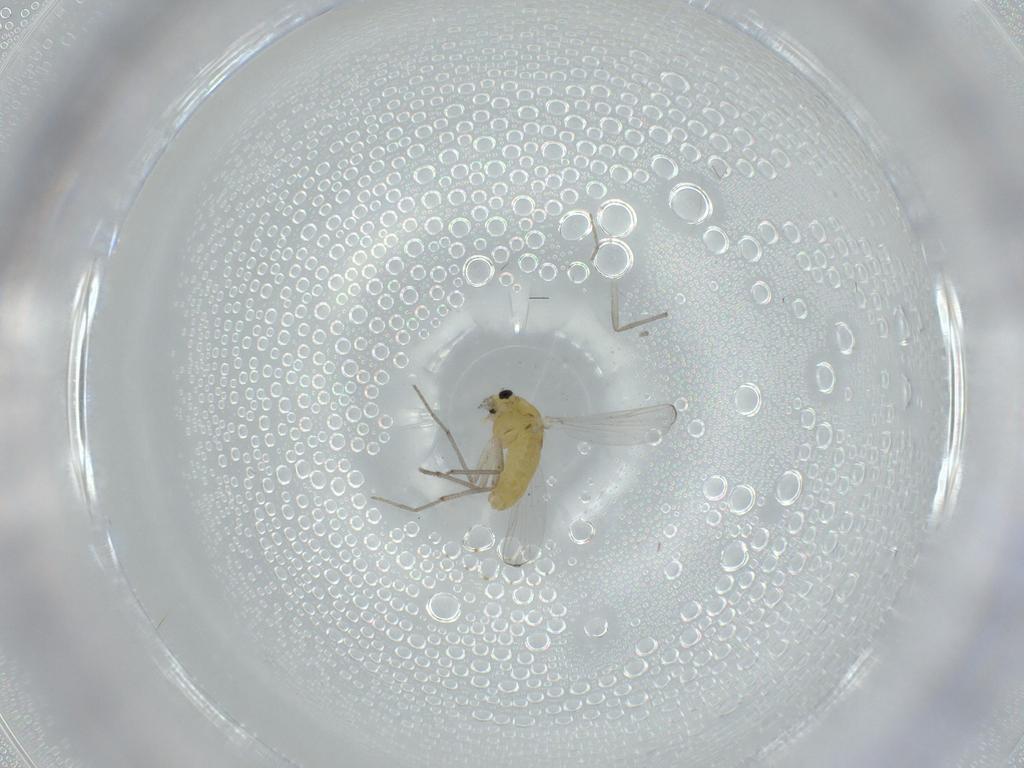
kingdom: Animalia
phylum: Arthropoda
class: Insecta
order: Diptera
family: Chironomidae
